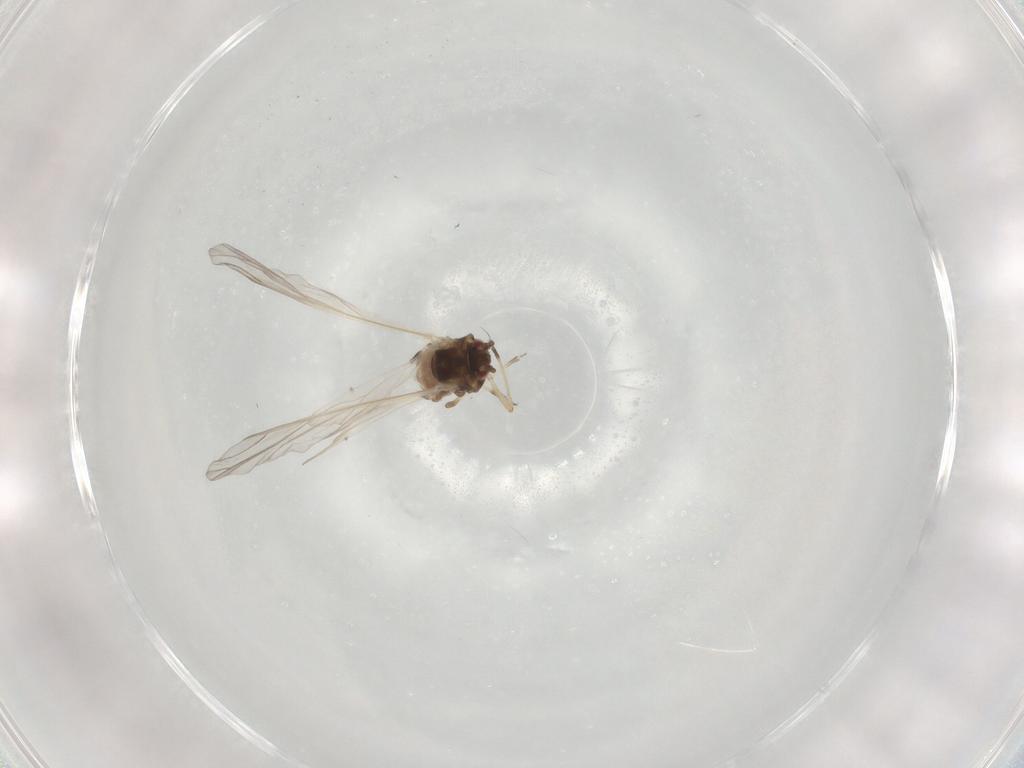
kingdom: Animalia
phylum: Arthropoda
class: Insecta
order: Hemiptera
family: Aphididae
